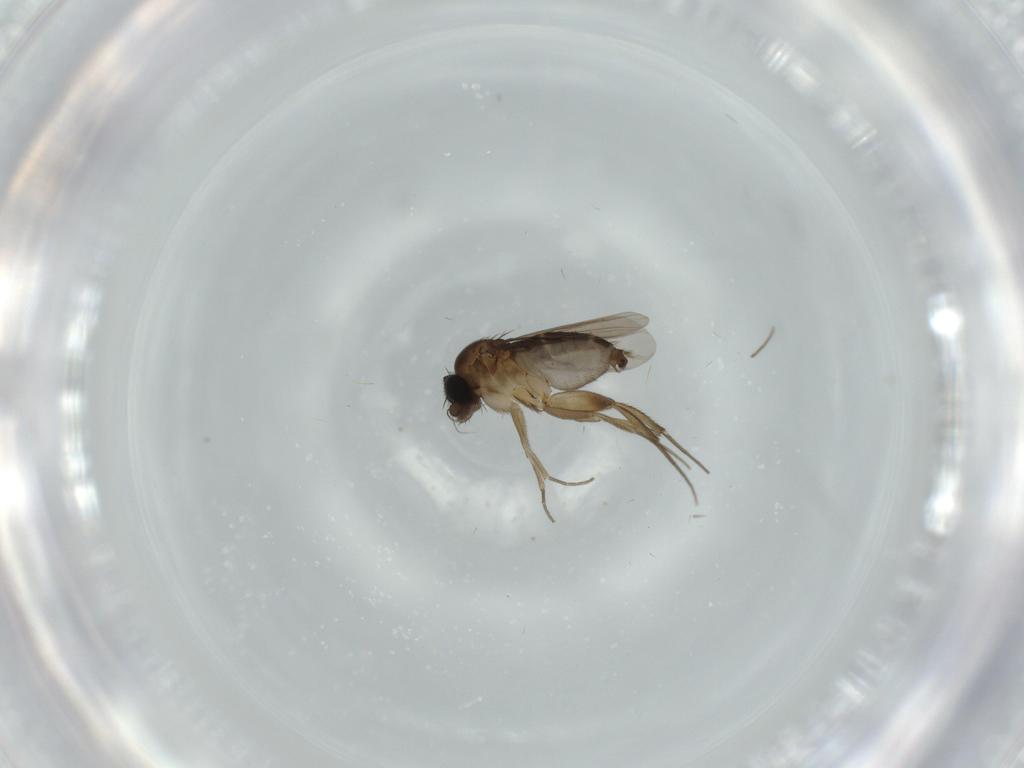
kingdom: Animalia
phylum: Arthropoda
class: Insecta
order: Diptera
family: Phoridae
